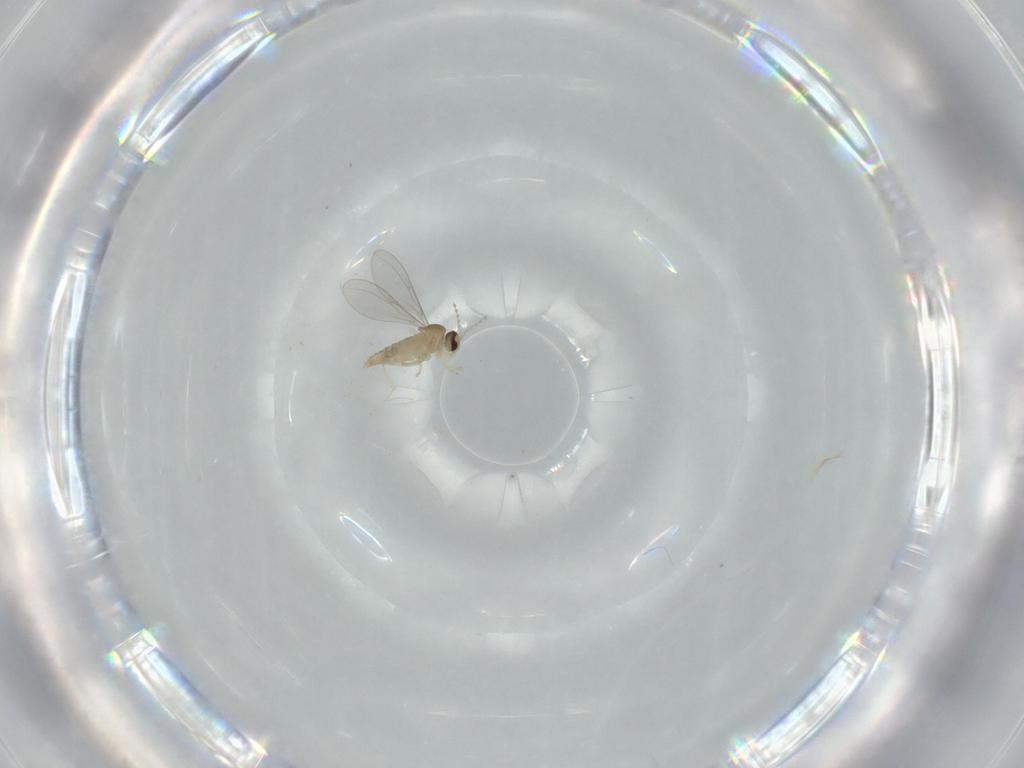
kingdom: Animalia
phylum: Arthropoda
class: Insecta
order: Diptera
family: Cecidomyiidae
